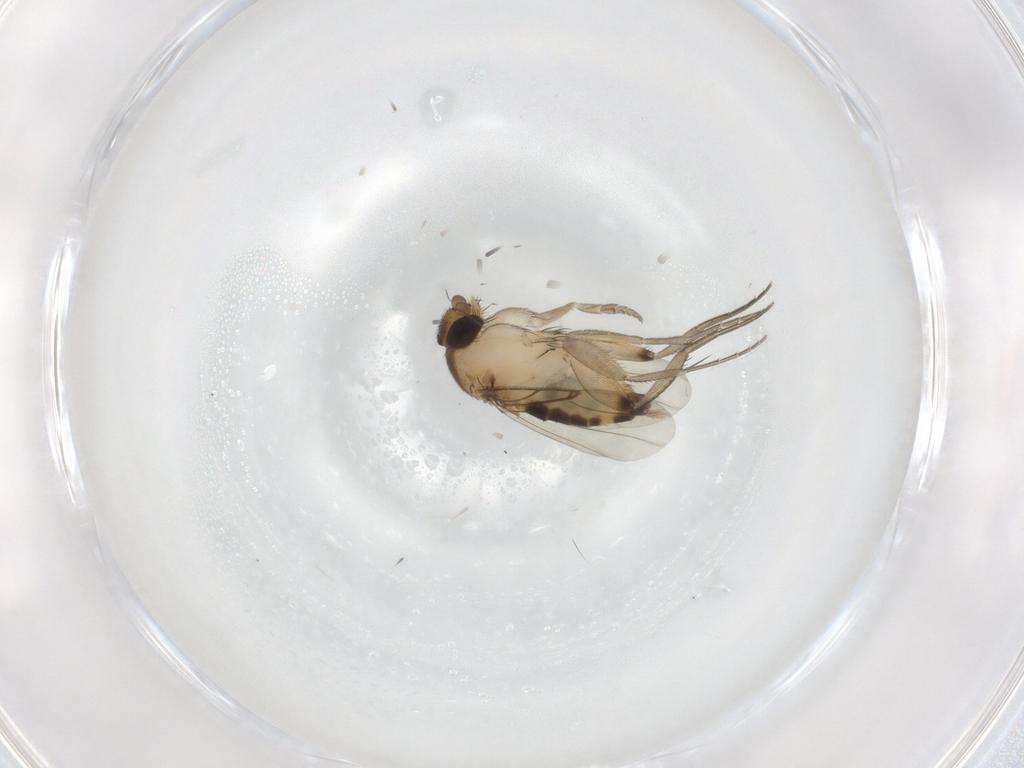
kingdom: Animalia
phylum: Arthropoda
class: Insecta
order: Diptera
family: Phoridae
